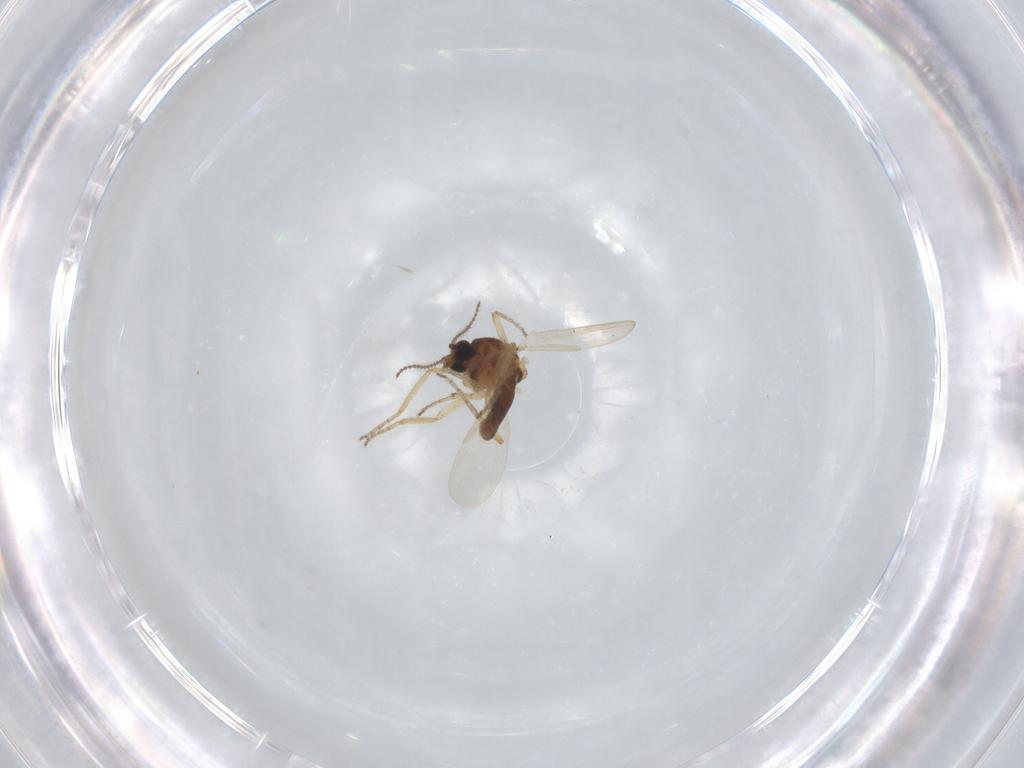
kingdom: Animalia
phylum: Arthropoda
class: Insecta
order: Diptera
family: Ceratopogonidae
